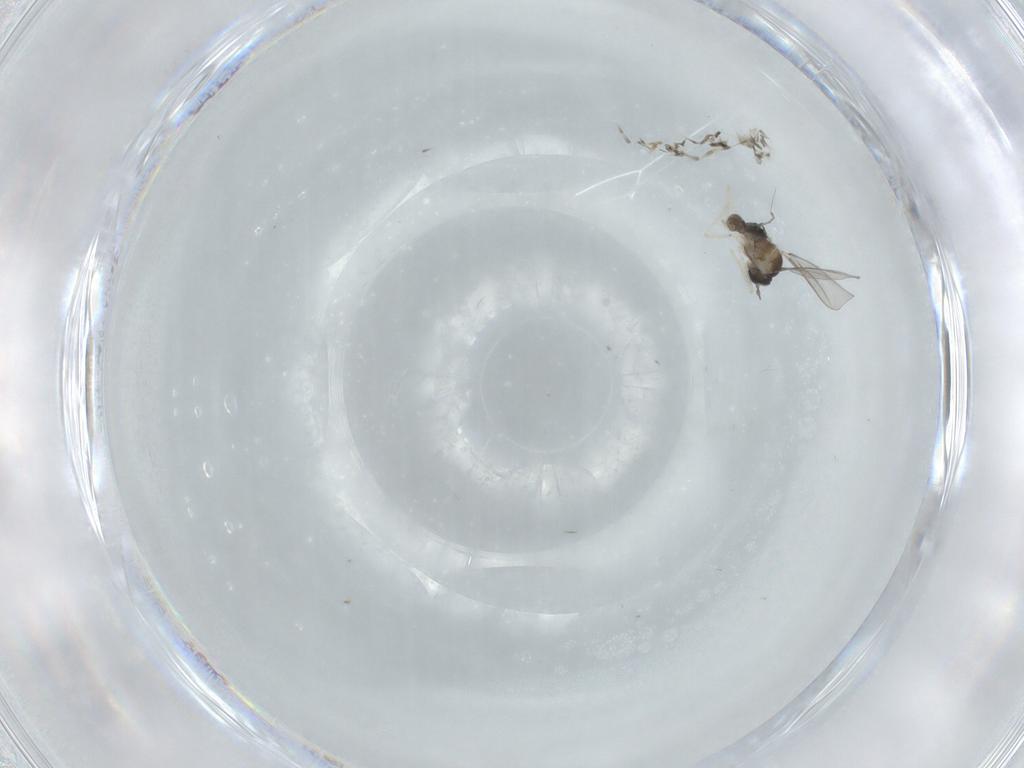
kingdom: Animalia
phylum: Arthropoda
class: Insecta
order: Diptera
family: Cecidomyiidae
